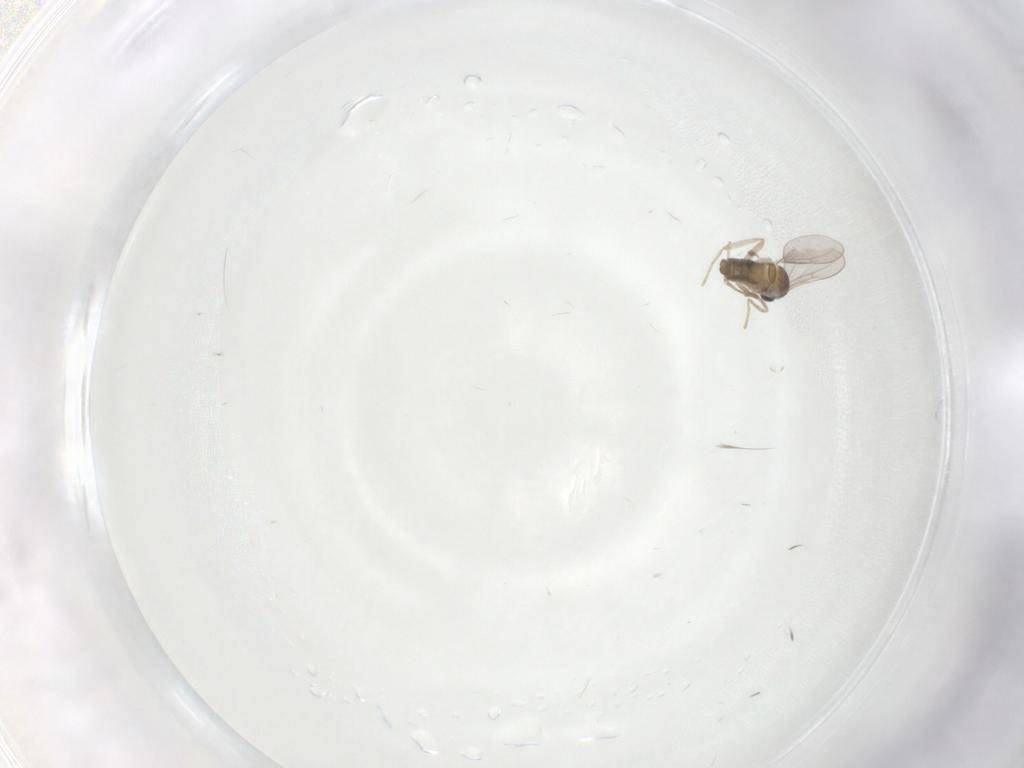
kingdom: Animalia
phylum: Arthropoda
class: Insecta
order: Diptera
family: Cecidomyiidae
